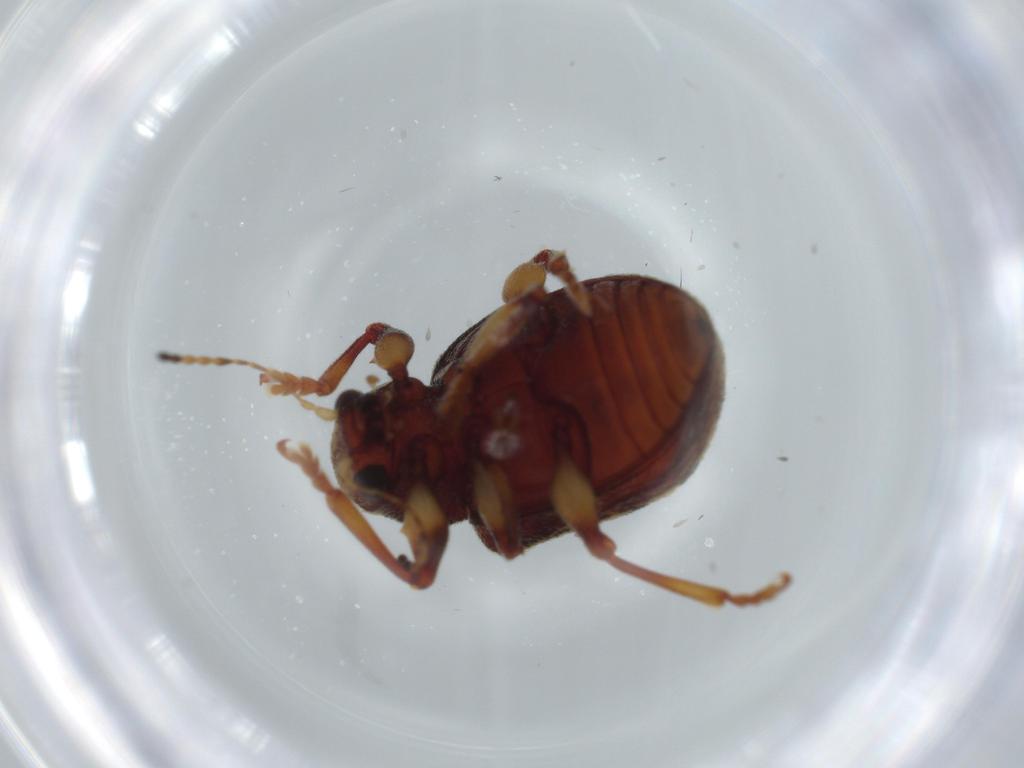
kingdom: Animalia
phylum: Arthropoda
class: Insecta
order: Coleoptera
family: Chrysomelidae
